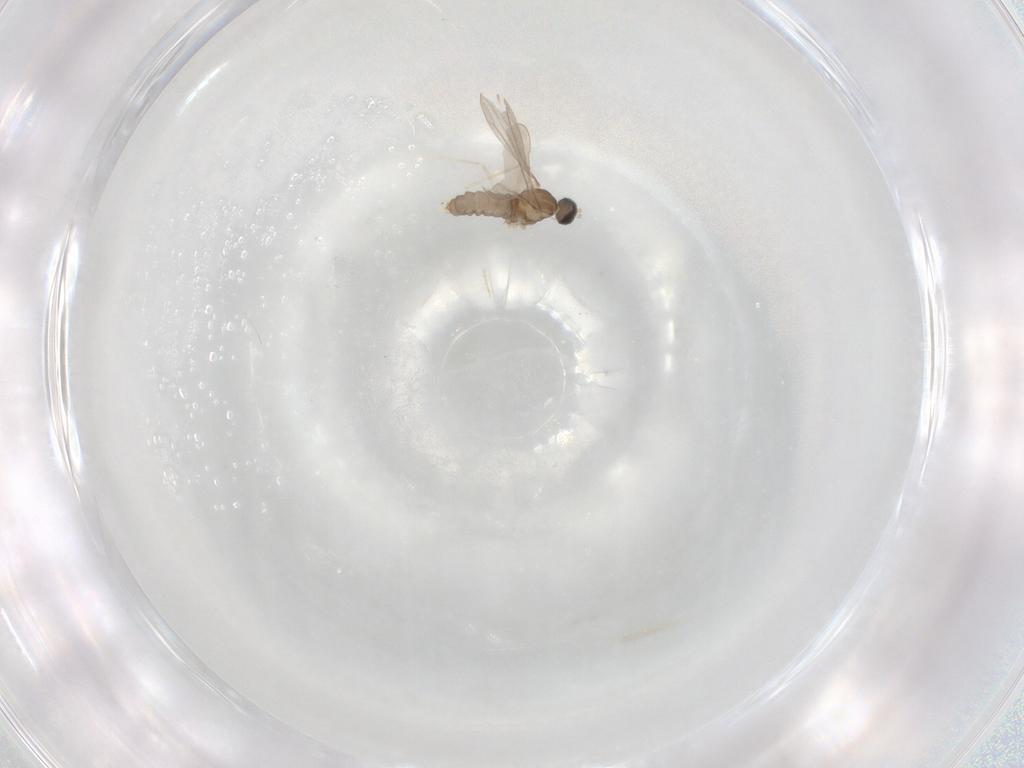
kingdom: Animalia
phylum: Arthropoda
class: Insecta
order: Diptera
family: Cecidomyiidae
